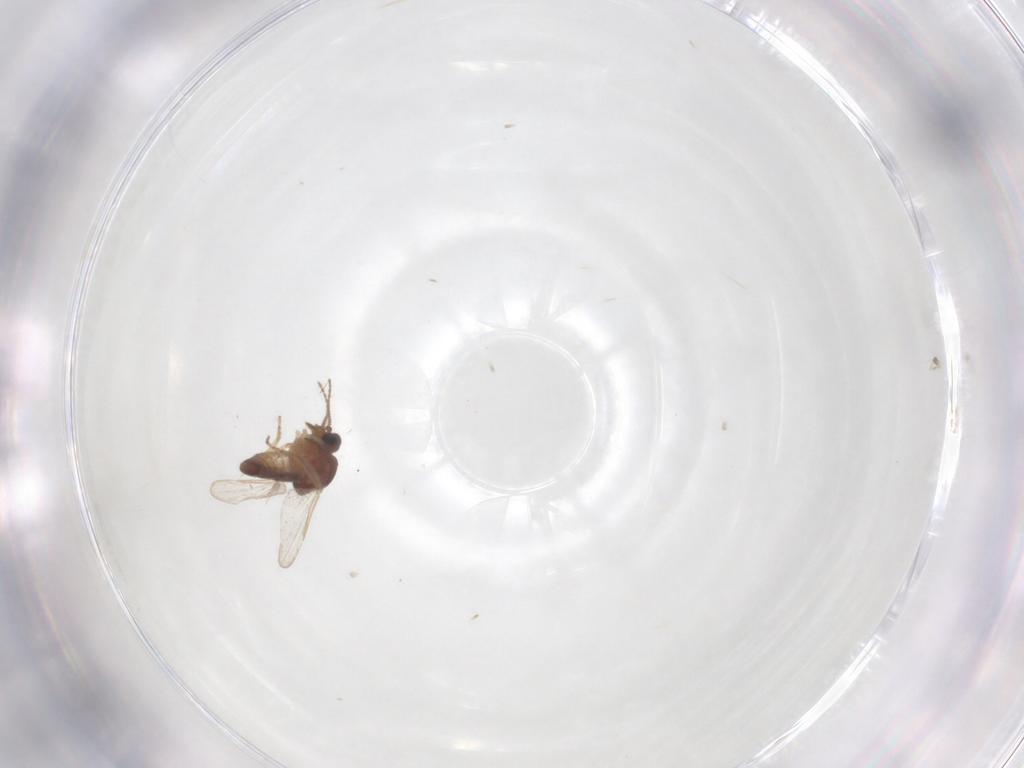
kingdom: Animalia
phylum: Arthropoda
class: Insecta
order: Diptera
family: Ceratopogonidae
